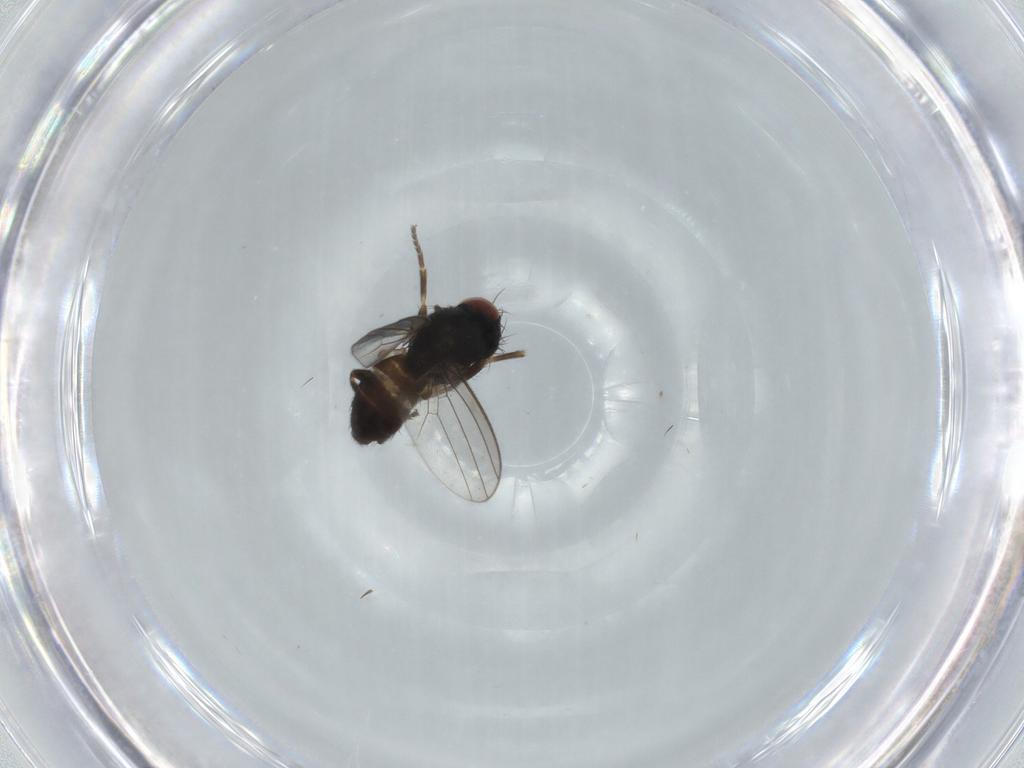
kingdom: Animalia
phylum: Arthropoda
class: Insecta
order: Diptera
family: Milichiidae
